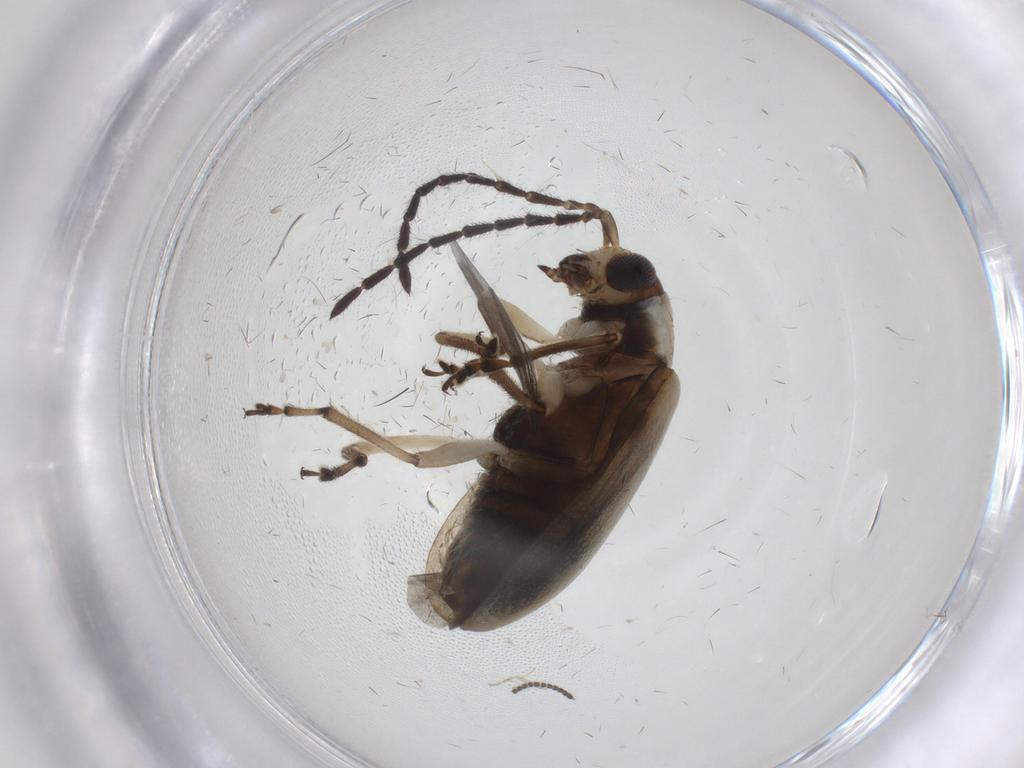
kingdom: Animalia
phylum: Arthropoda
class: Insecta
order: Coleoptera
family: Chrysomelidae
